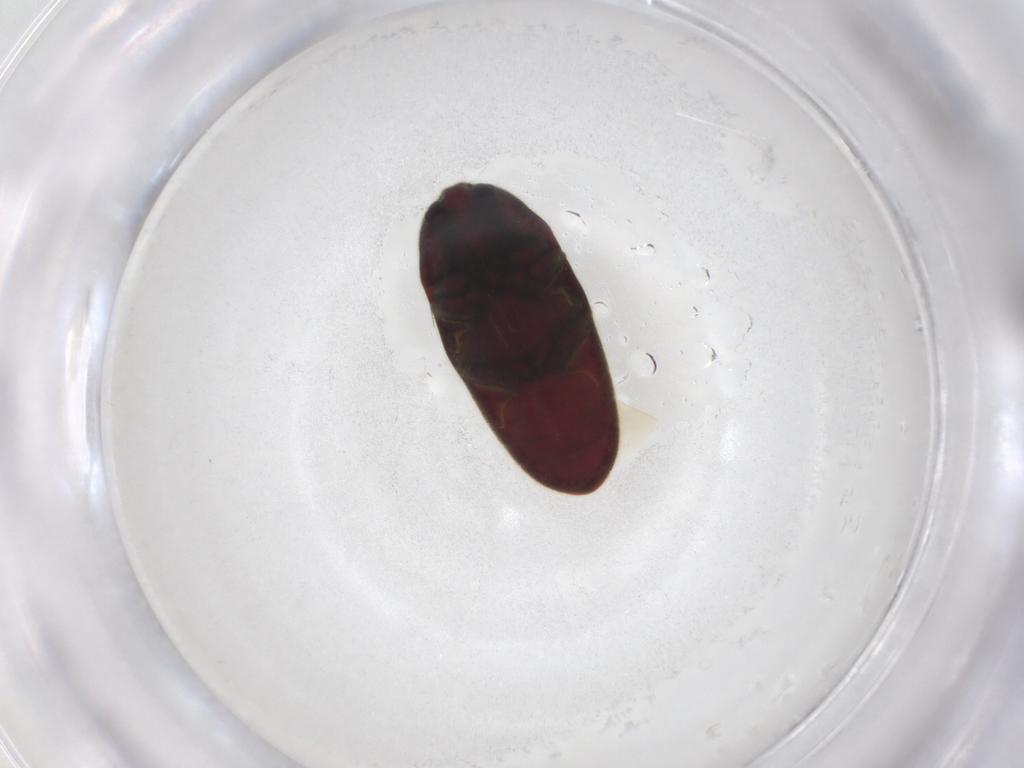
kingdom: Animalia
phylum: Arthropoda
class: Insecta
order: Coleoptera
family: Throscidae
